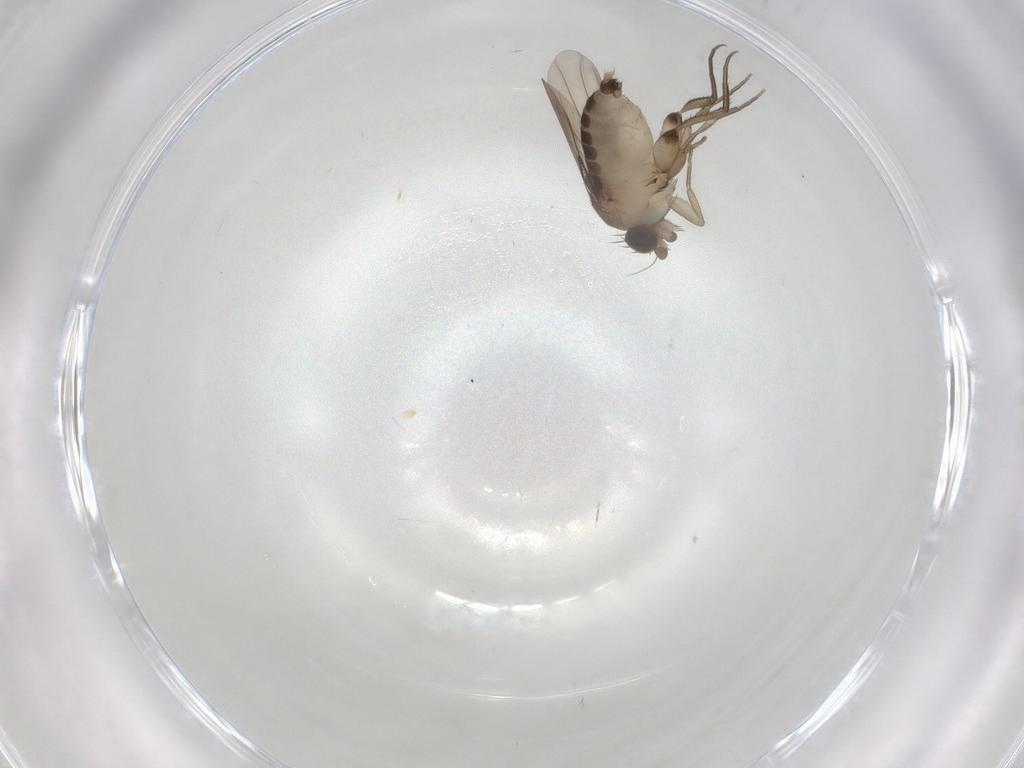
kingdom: Animalia
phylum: Arthropoda
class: Insecta
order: Diptera
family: Phoridae
